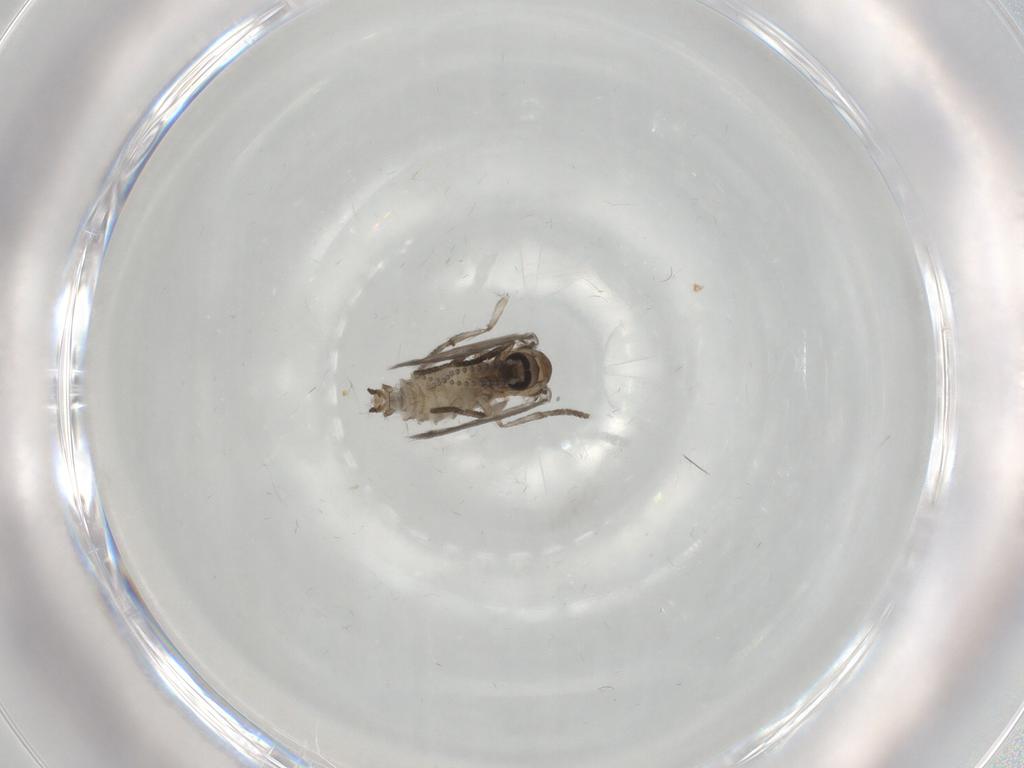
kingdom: Animalia
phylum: Arthropoda
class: Insecta
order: Diptera
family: Psychodidae
